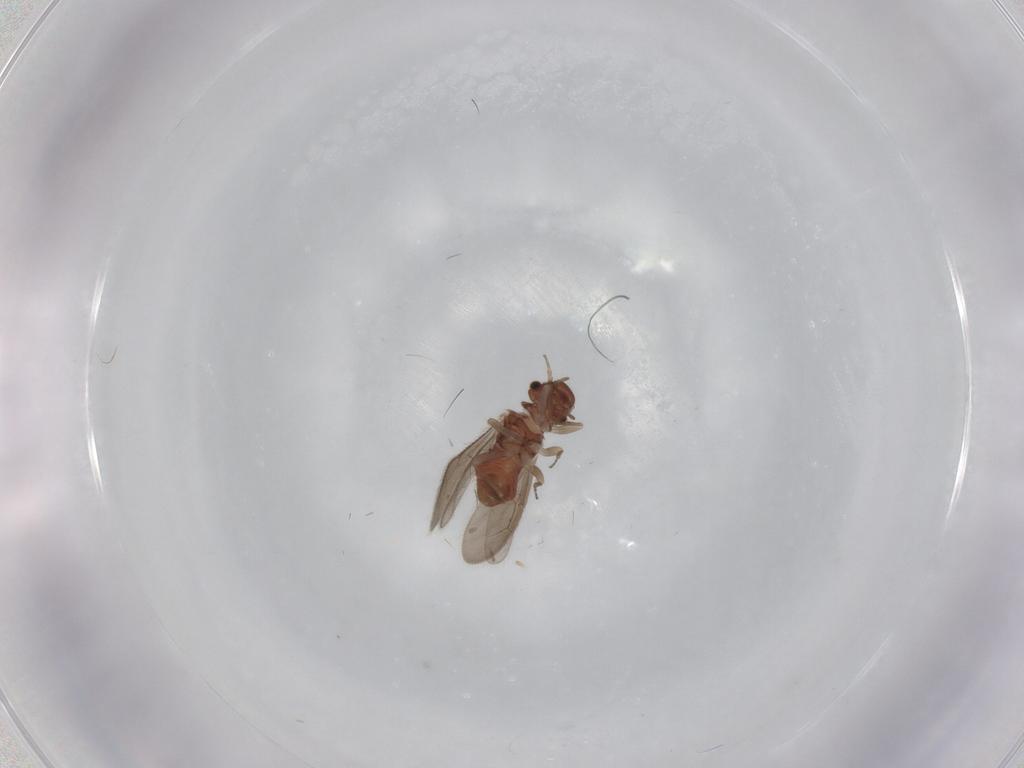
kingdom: Animalia
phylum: Arthropoda
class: Insecta
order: Psocodea
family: Archipsocidae
